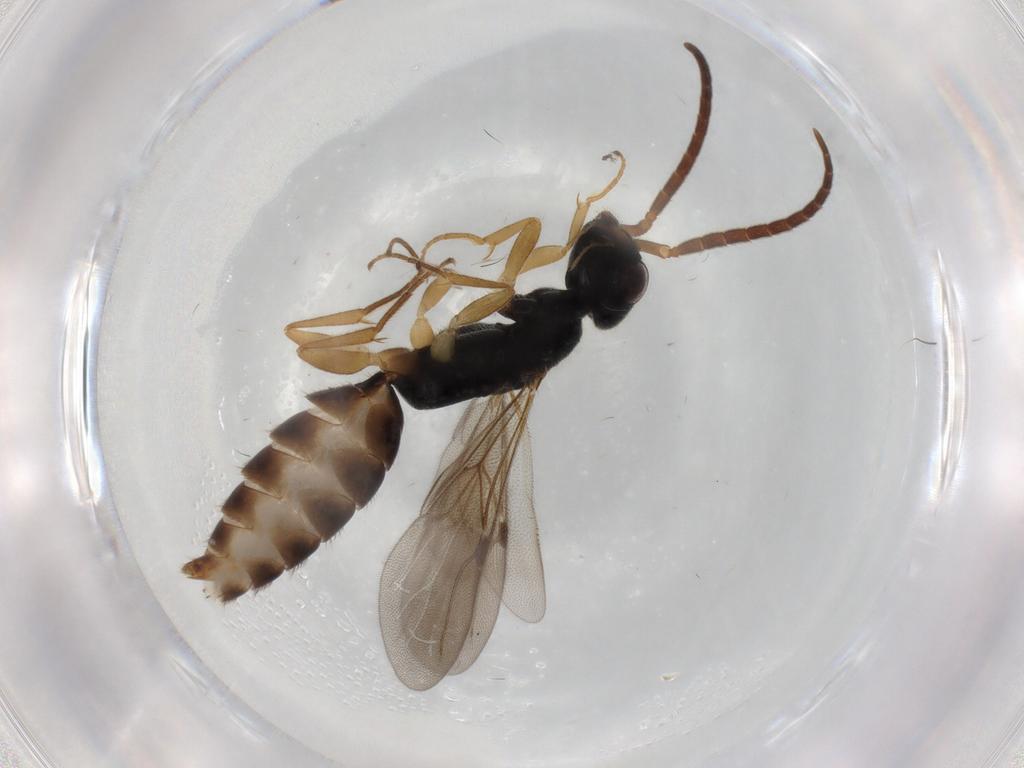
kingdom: Animalia
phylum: Arthropoda
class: Insecta
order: Hymenoptera
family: Bethylidae
